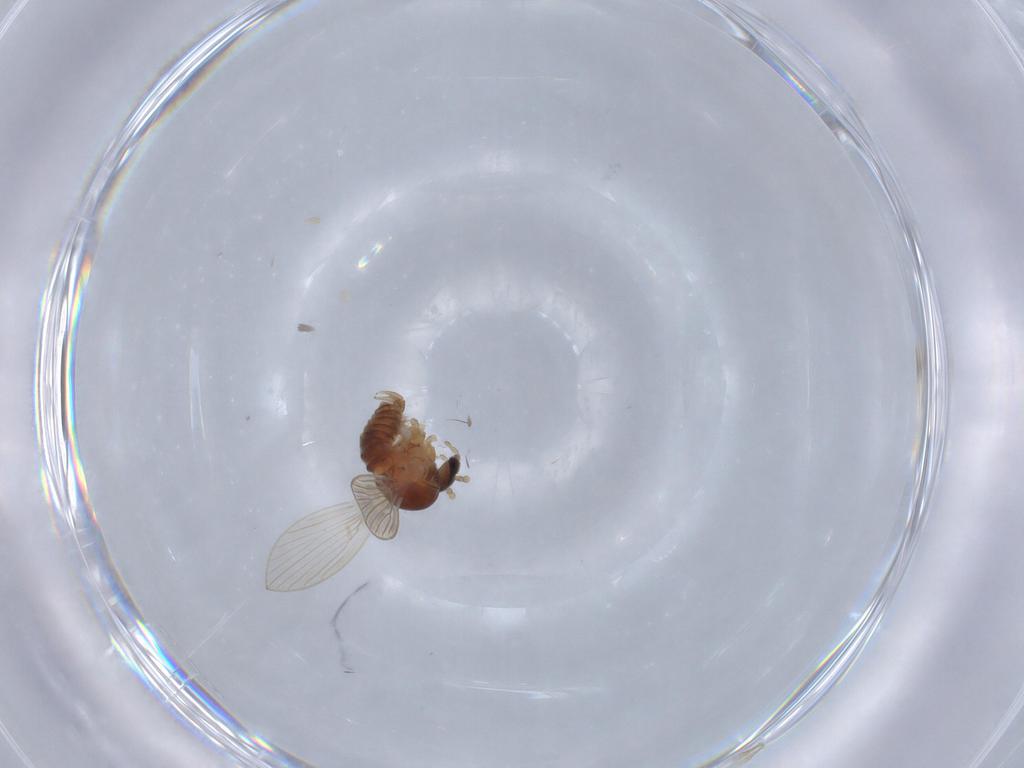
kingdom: Animalia
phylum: Arthropoda
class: Insecta
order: Diptera
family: Psychodidae
